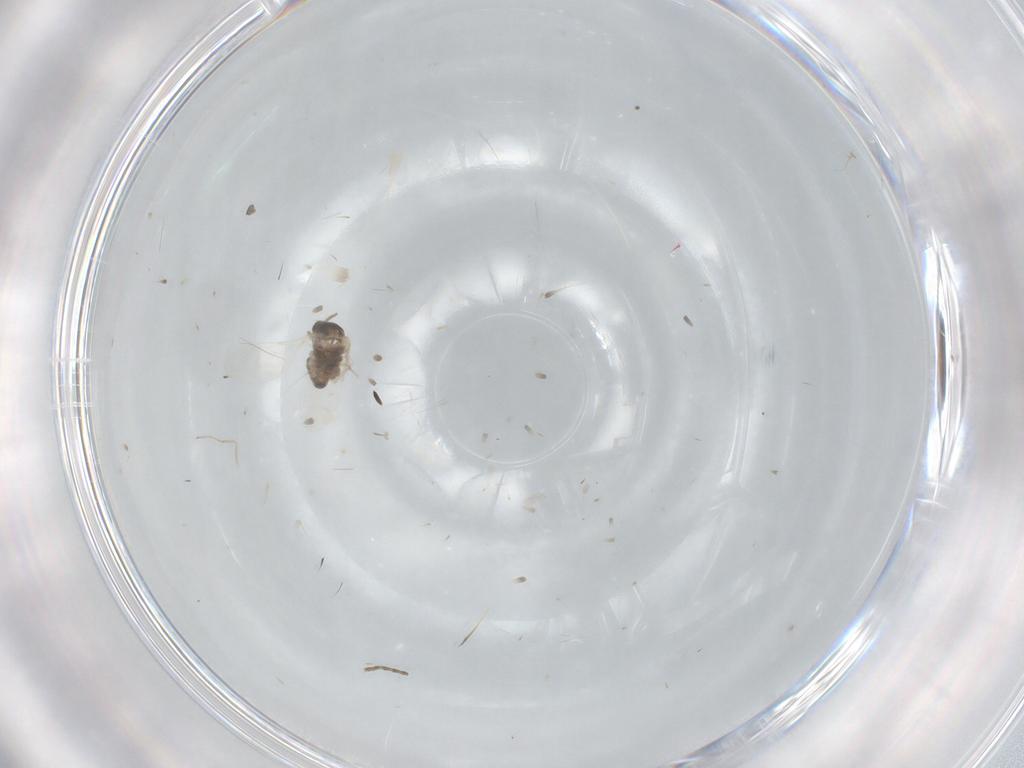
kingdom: Animalia
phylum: Arthropoda
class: Insecta
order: Diptera
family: Cecidomyiidae
